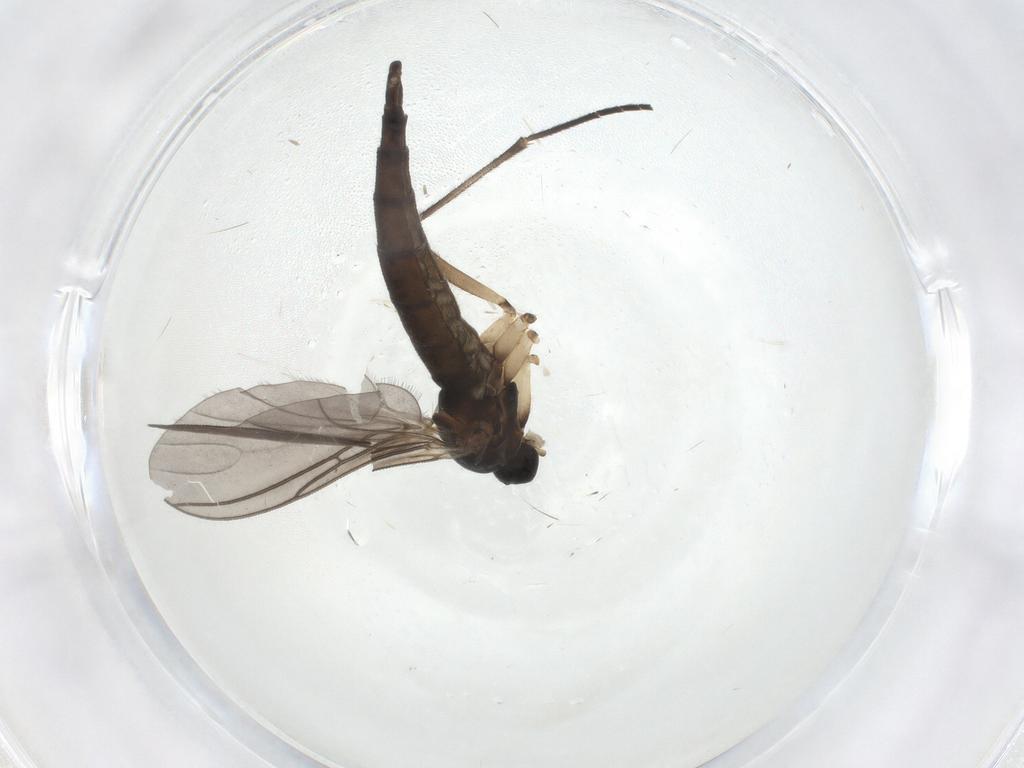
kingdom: Animalia
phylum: Arthropoda
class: Insecta
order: Diptera
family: Sciaridae
